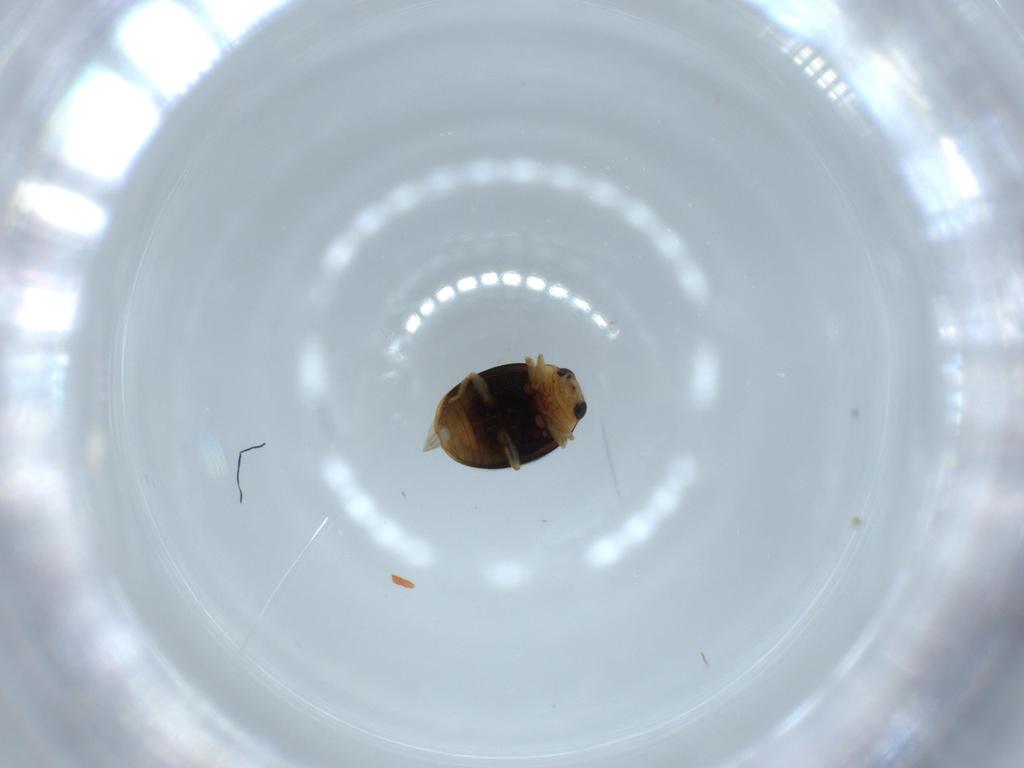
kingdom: Animalia
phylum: Arthropoda
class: Insecta
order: Coleoptera
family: Coccinellidae
